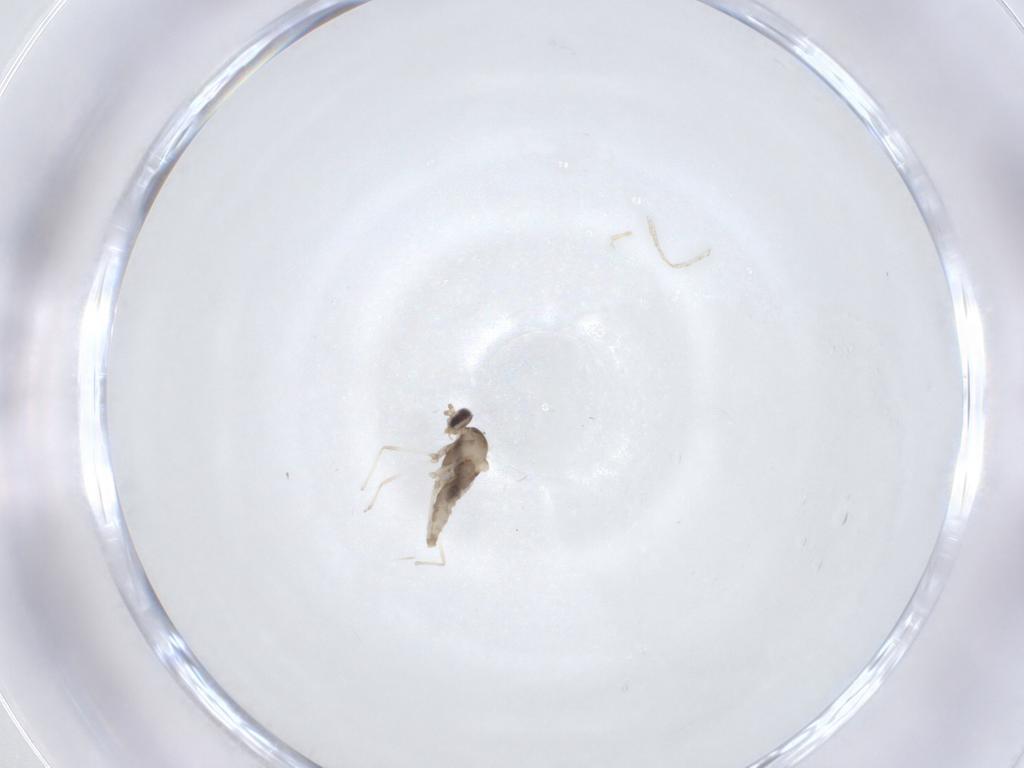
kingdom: Animalia
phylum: Arthropoda
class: Insecta
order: Diptera
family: Cecidomyiidae
